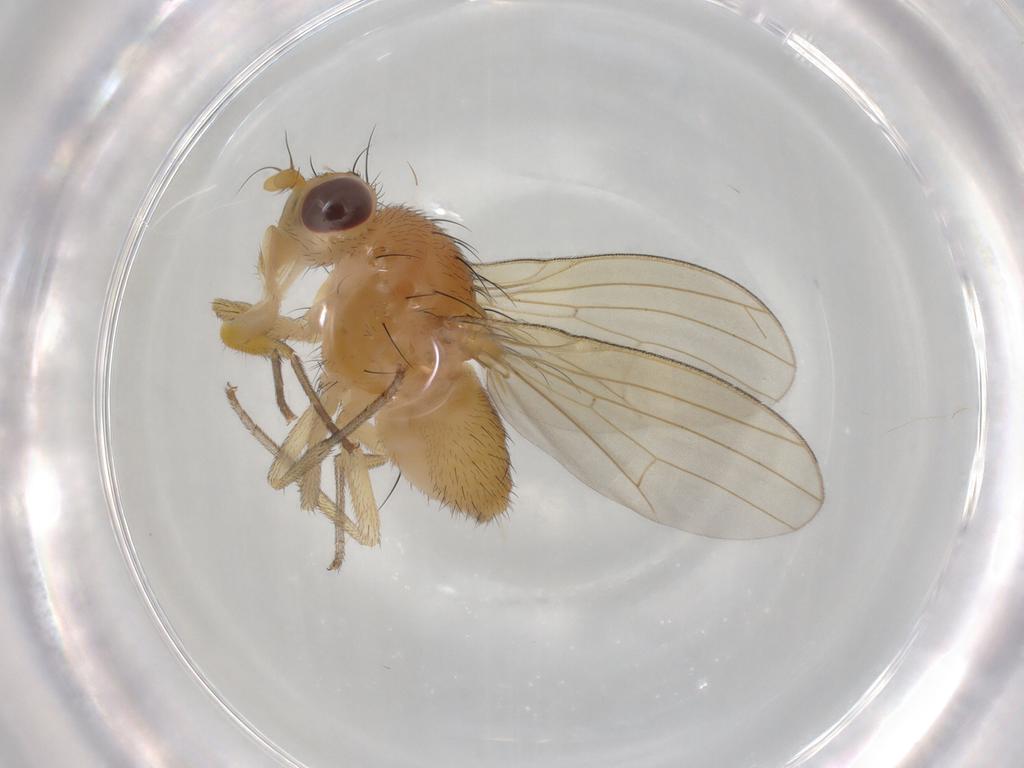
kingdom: Animalia
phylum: Arthropoda
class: Insecta
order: Diptera
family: Lauxaniidae
